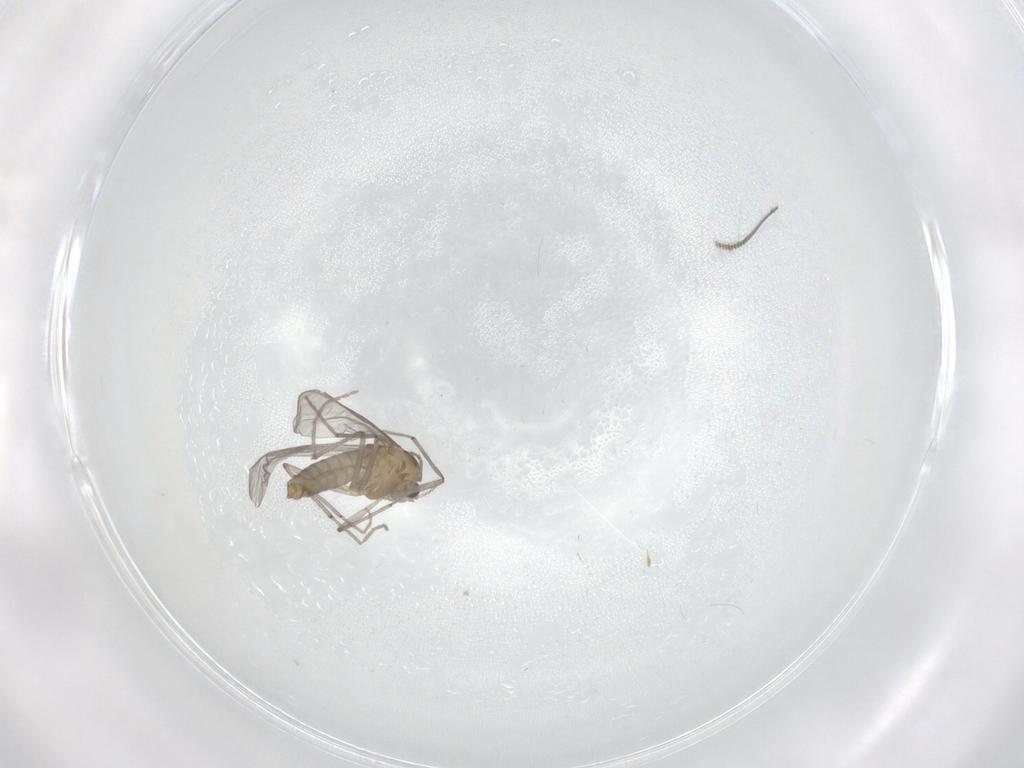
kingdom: Animalia
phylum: Arthropoda
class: Insecta
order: Diptera
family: Chironomidae
